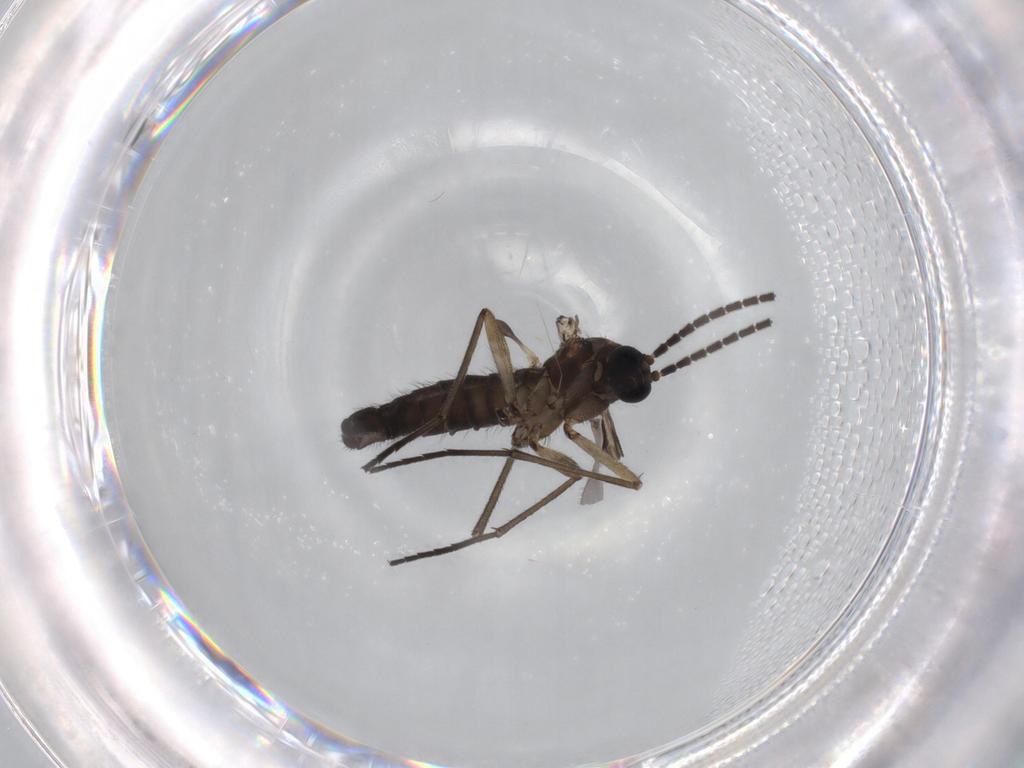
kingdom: Animalia
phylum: Arthropoda
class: Insecta
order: Diptera
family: Sciaridae
